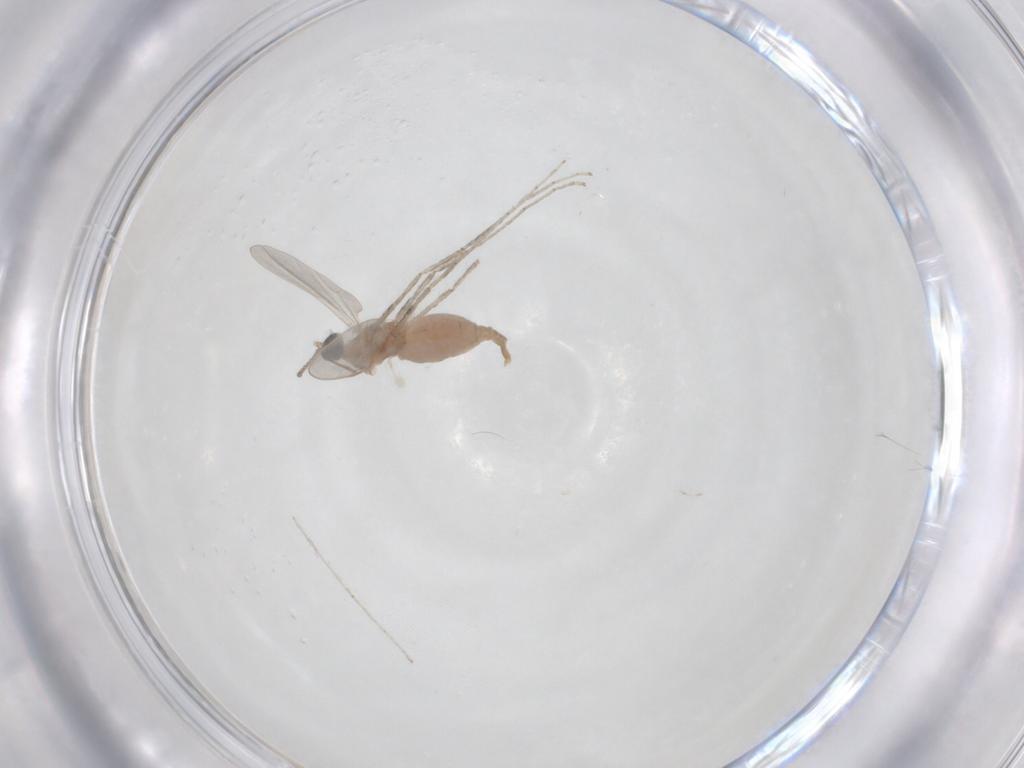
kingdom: Animalia
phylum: Arthropoda
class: Insecta
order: Diptera
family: Cecidomyiidae
